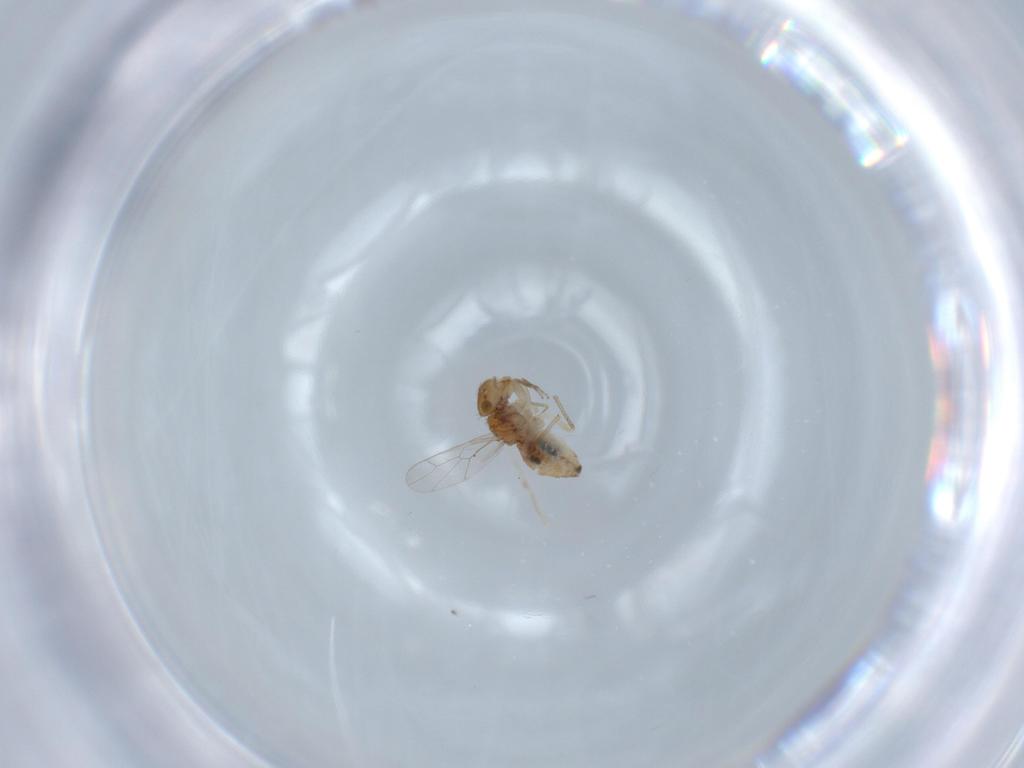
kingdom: Animalia
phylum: Arthropoda
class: Insecta
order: Psocodea
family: Ectopsocidae
